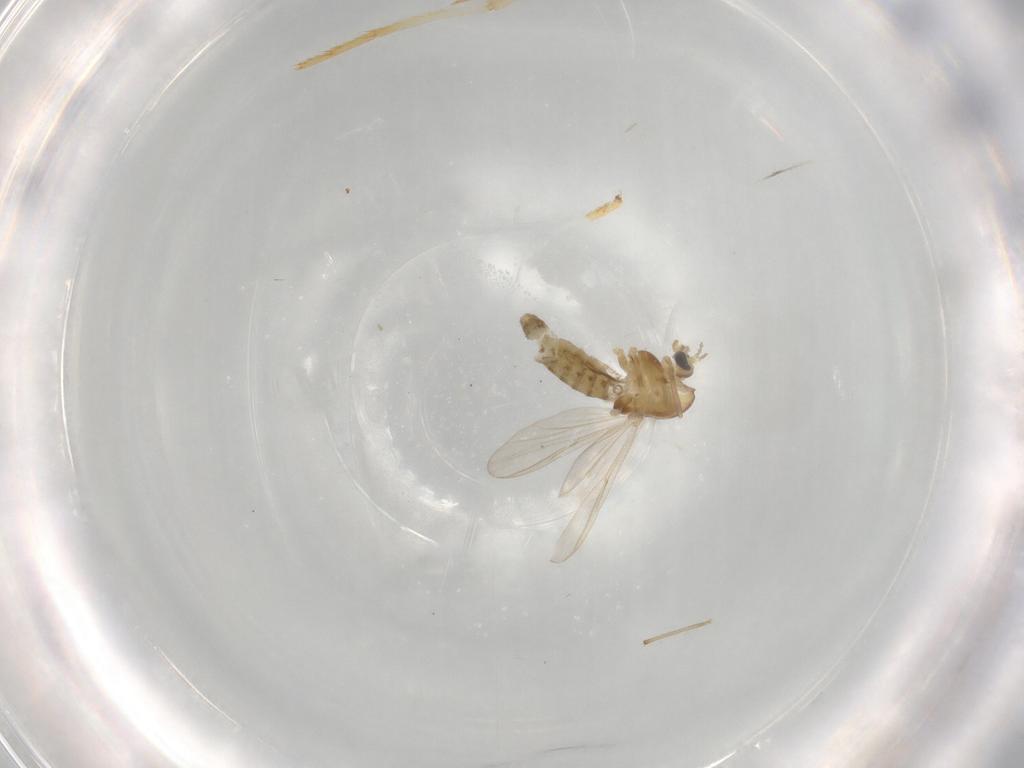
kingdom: Animalia
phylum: Arthropoda
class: Insecta
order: Diptera
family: Chironomidae
